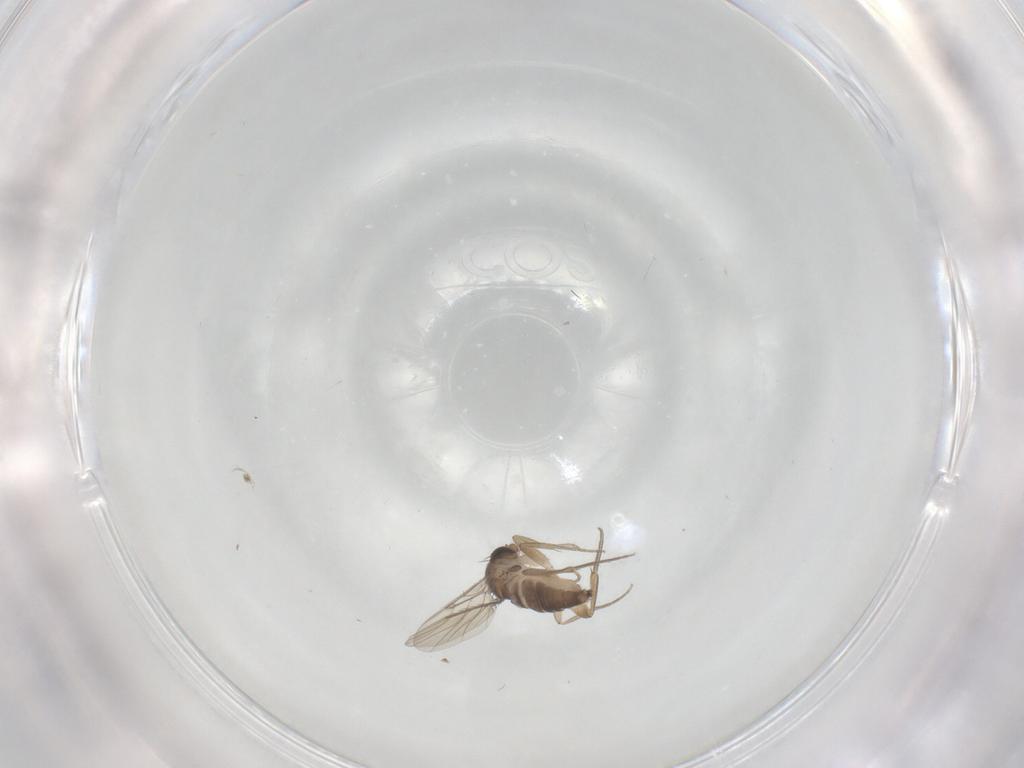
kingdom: Animalia
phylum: Arthropoda
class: Insecta
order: Diptera
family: Phoridae
